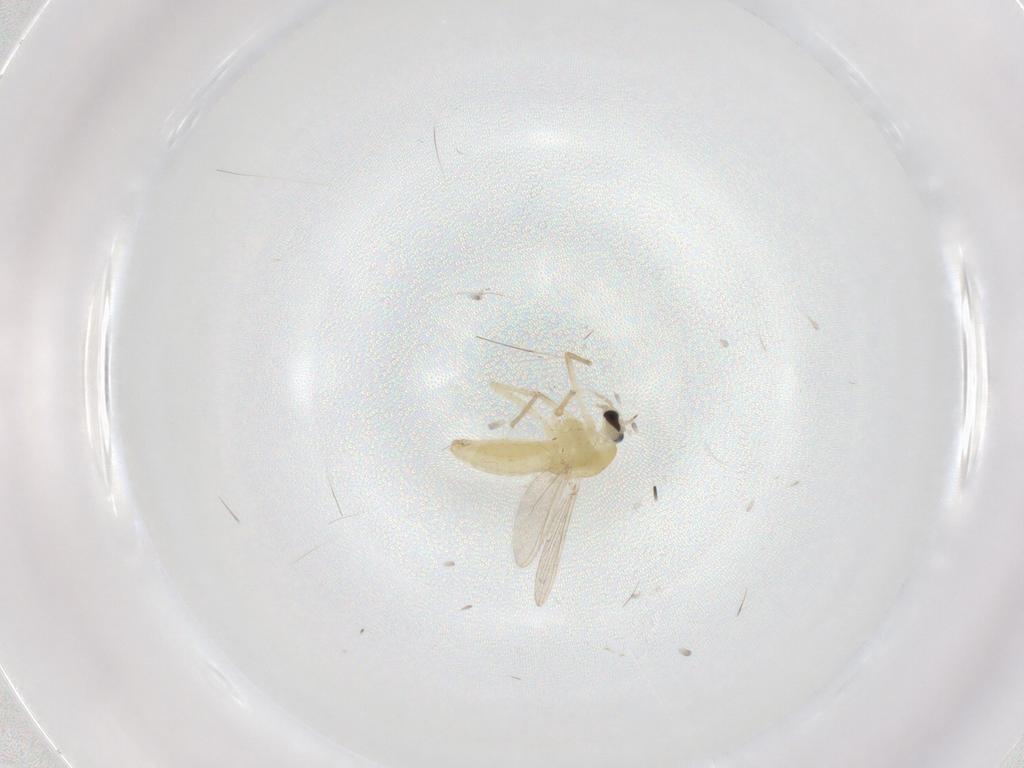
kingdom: Animalia
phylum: Arthropoda
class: Insecta
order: Diptera
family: Chironomidae
